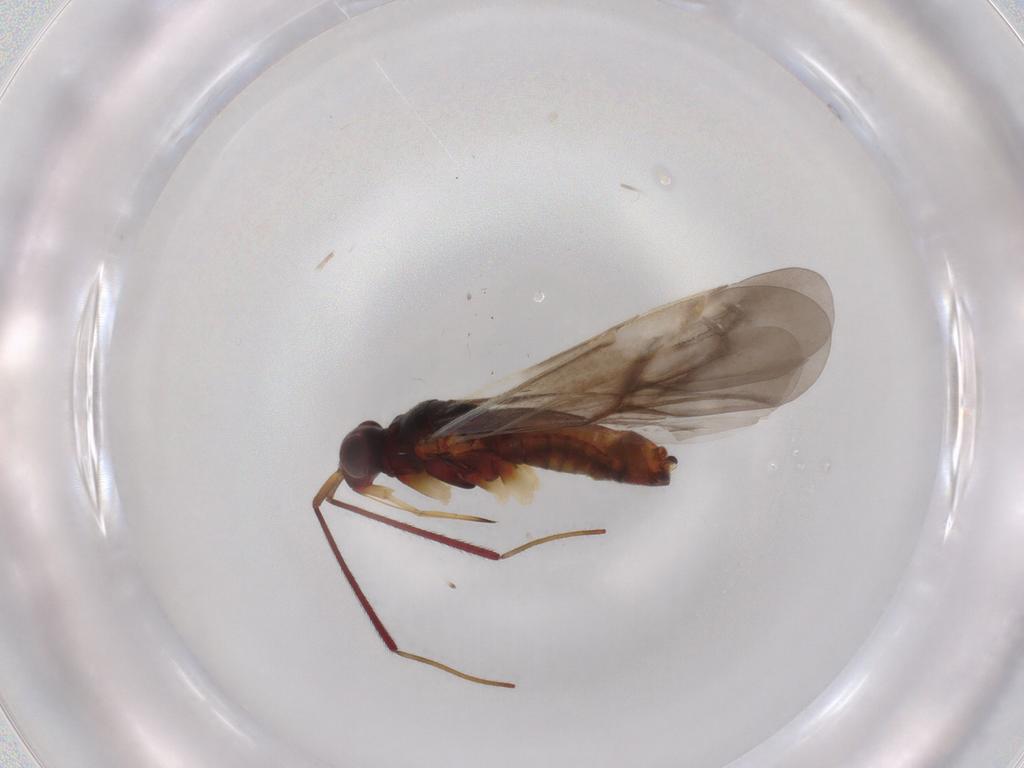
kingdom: Animalia
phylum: Arthropoda
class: Insecta
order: Hemiptera
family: Miridae
